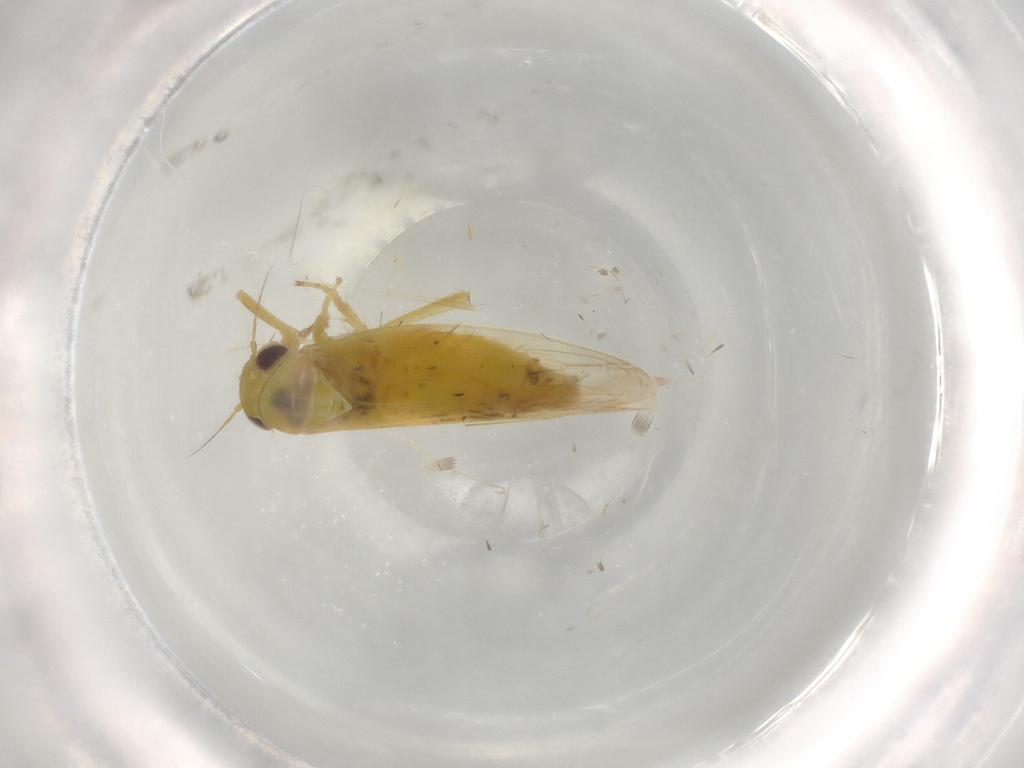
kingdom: Animalia
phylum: Arthropoda
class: Insecta
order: Hemiptera
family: Cicadellidae
